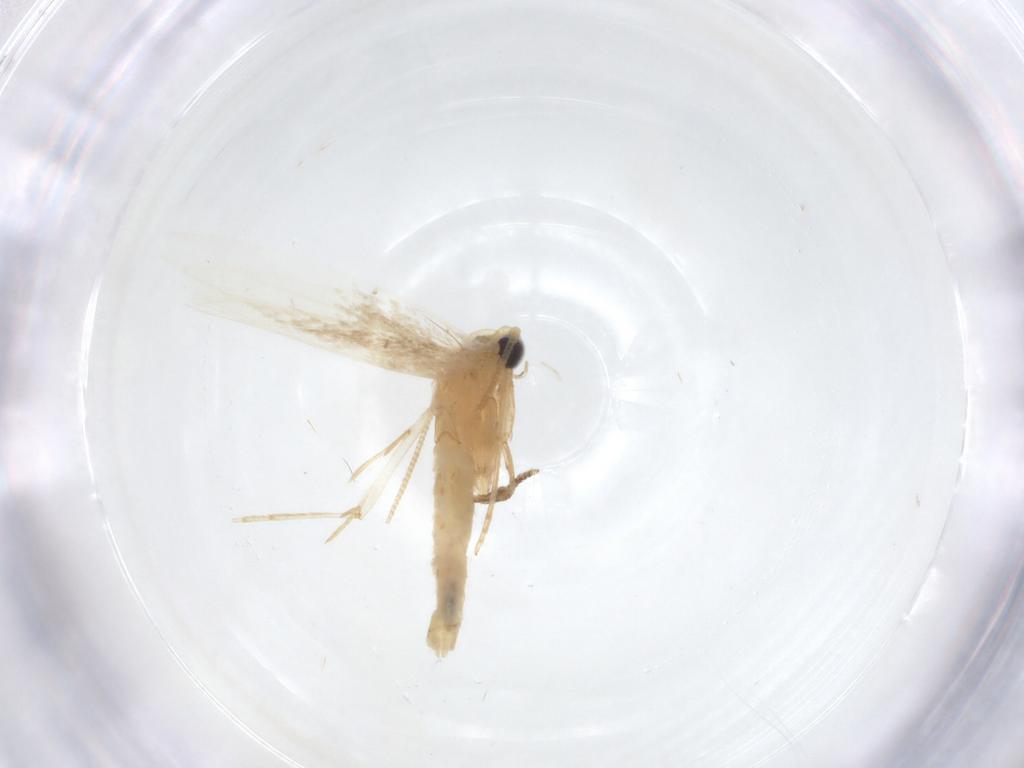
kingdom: Animalia
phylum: Arthropoda
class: Insecta
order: Lepidoptera
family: Tineidae
